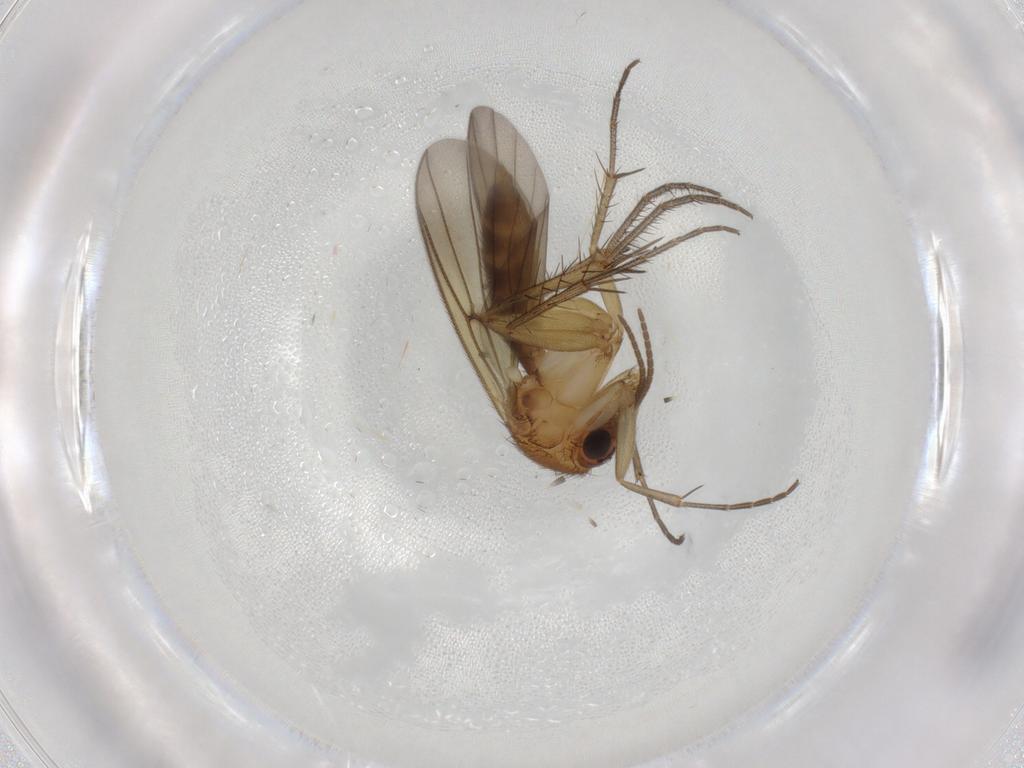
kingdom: Animalia
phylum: Arthropoda
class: Insecta
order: Diptera
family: Mycetophilidae
